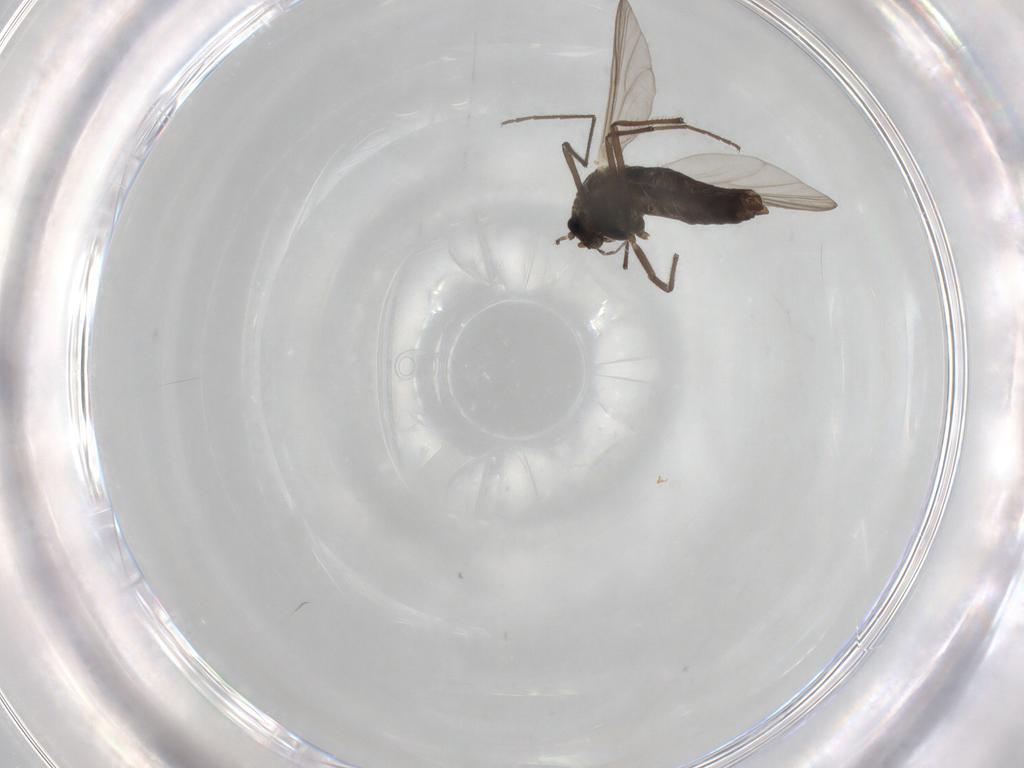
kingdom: Animalia
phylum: Arthropoda
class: Insecta
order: Diptera
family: Chironomidae
